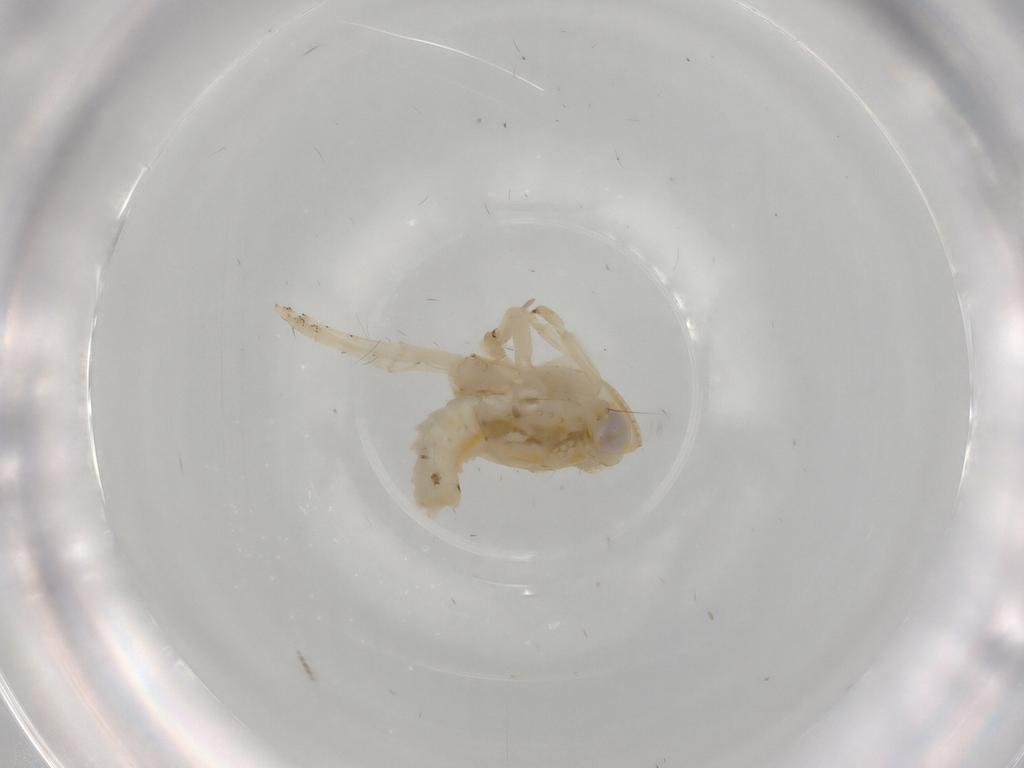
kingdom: Animalia
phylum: Arthropoda
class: Insecta
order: Hemiptera
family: Nogodinidae
